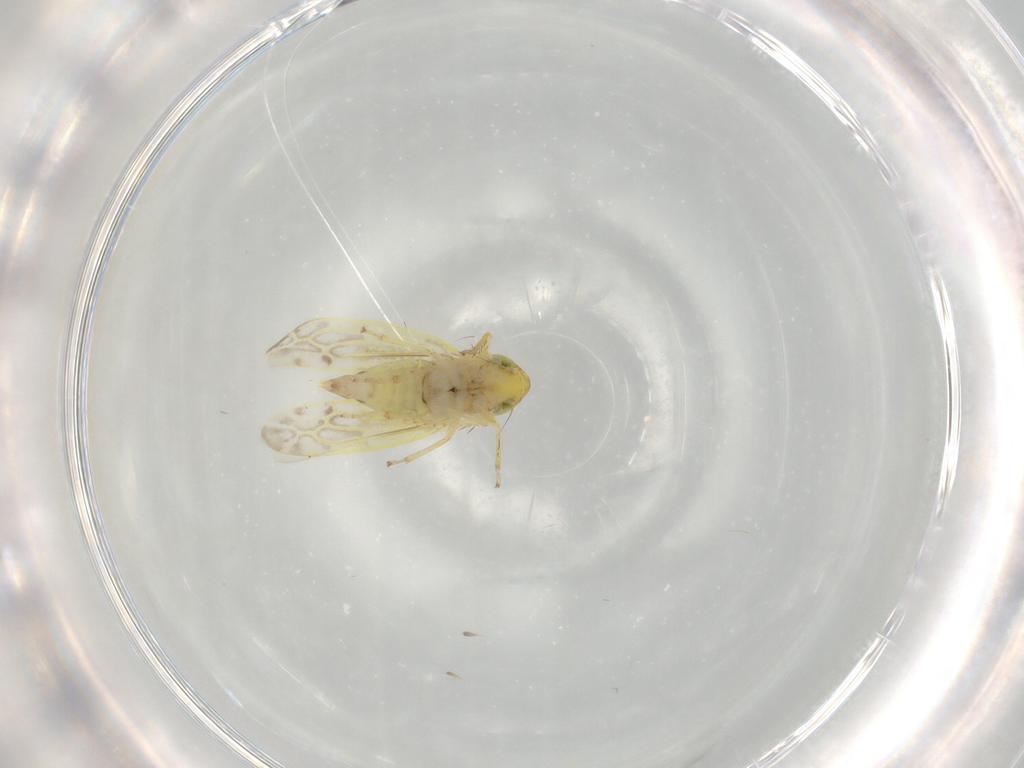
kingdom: Animalia
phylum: Arthropoda
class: Insecta
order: Hemiptera
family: Cicadellidae
